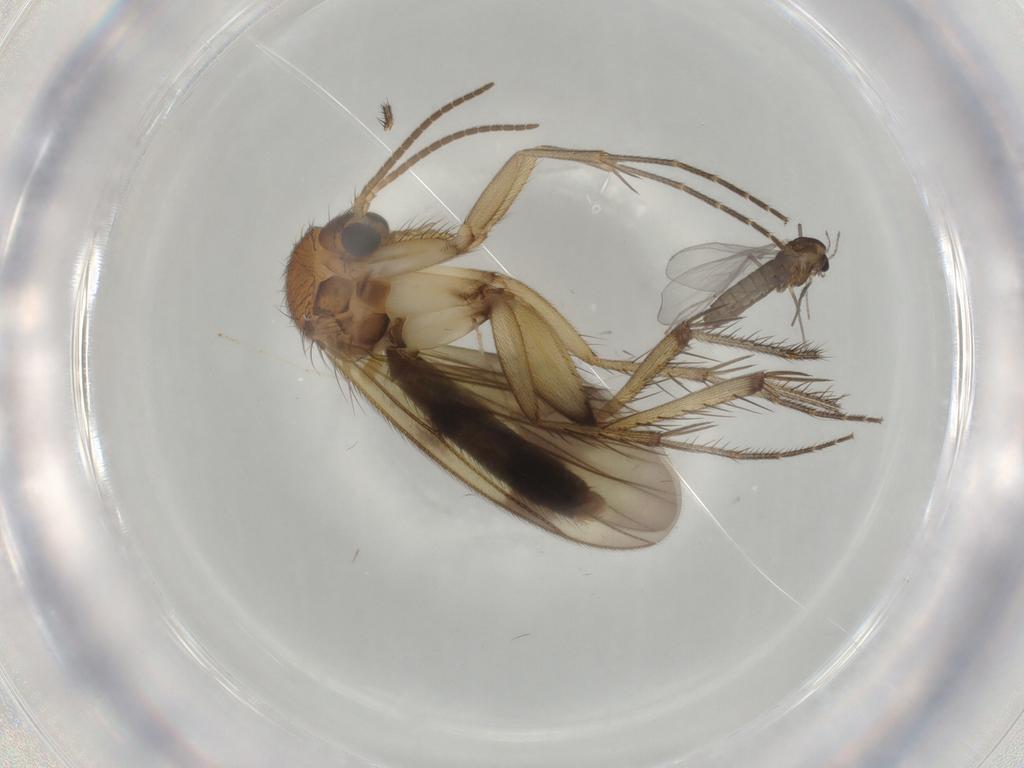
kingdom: Animalia
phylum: Arthropoda
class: Insecta
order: Diptera
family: Chironomidae
